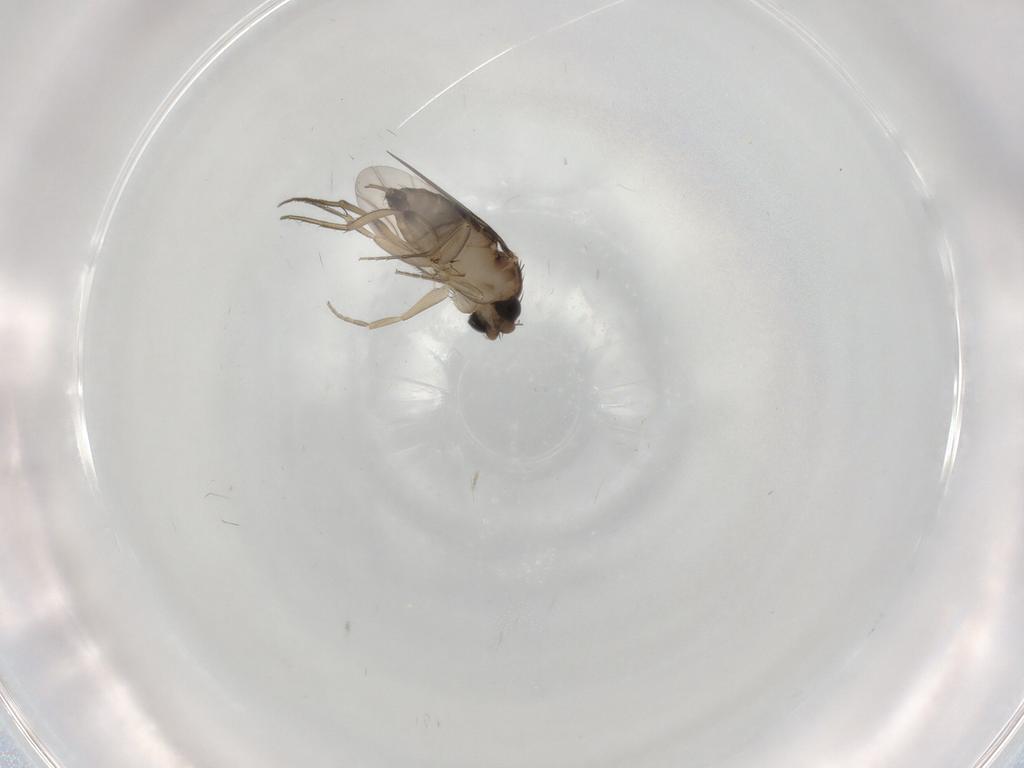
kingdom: Animalia
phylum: Arthropoda
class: Insecta
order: Diptera
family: Phoridae
